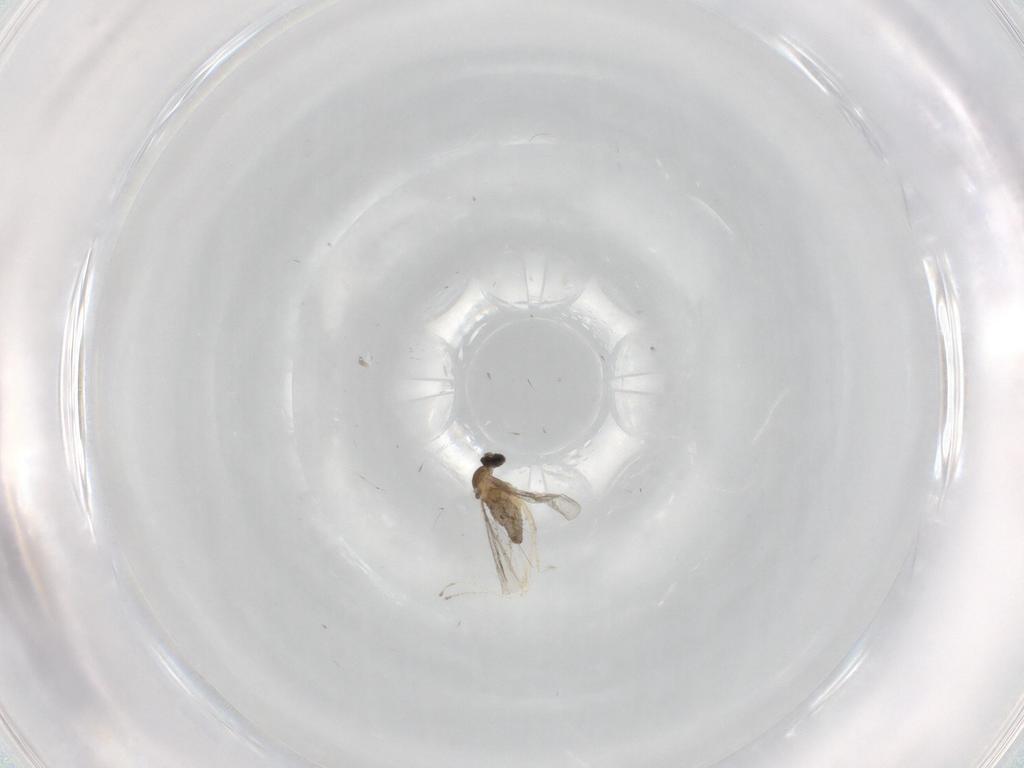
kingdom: Animalia
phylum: Arthropoda
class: Insecta
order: Diptera
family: Cecidomyiidae
